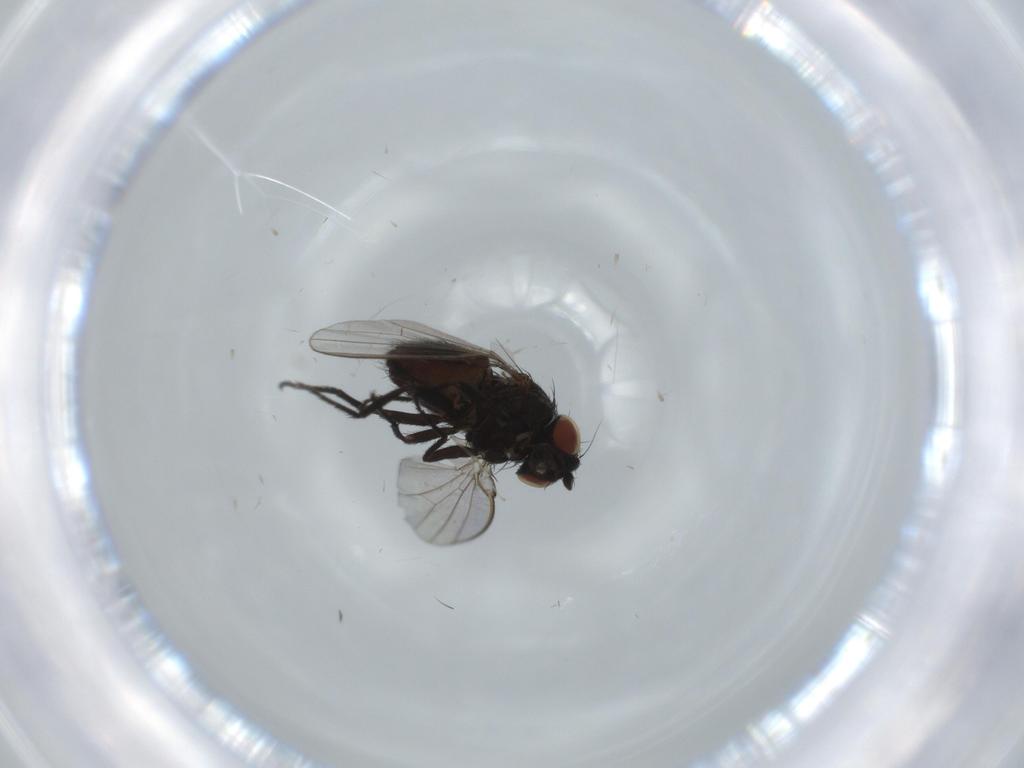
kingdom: Animalia
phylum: Arthropoda
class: Insecta
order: Diptera
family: Milichiidae
